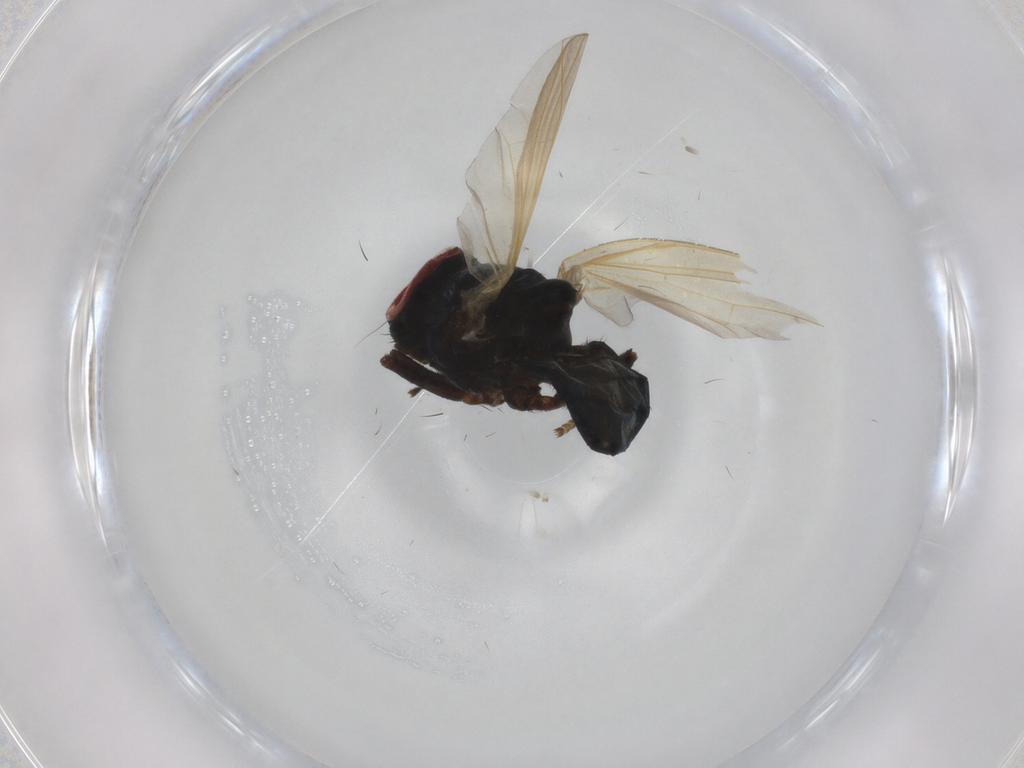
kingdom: Animalia
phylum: Arthropoda
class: Insecta
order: Diptera
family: Lonchaeidae
